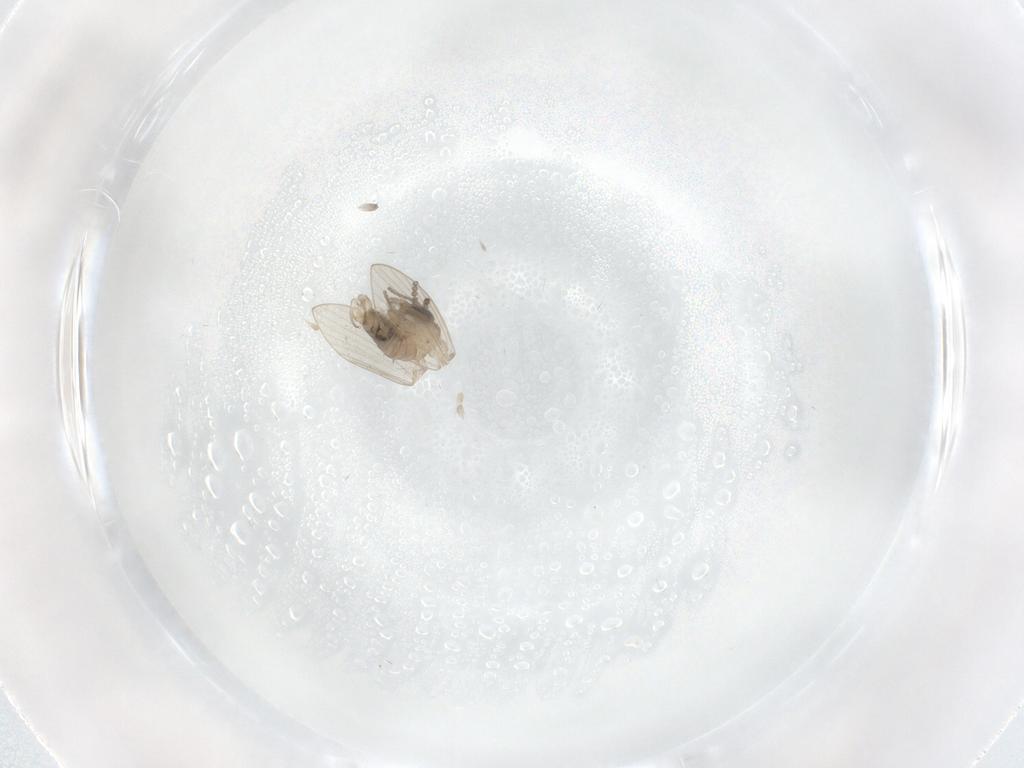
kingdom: Animalia
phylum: Arthropoda
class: Insecta
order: Diptera
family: Psychodidae
